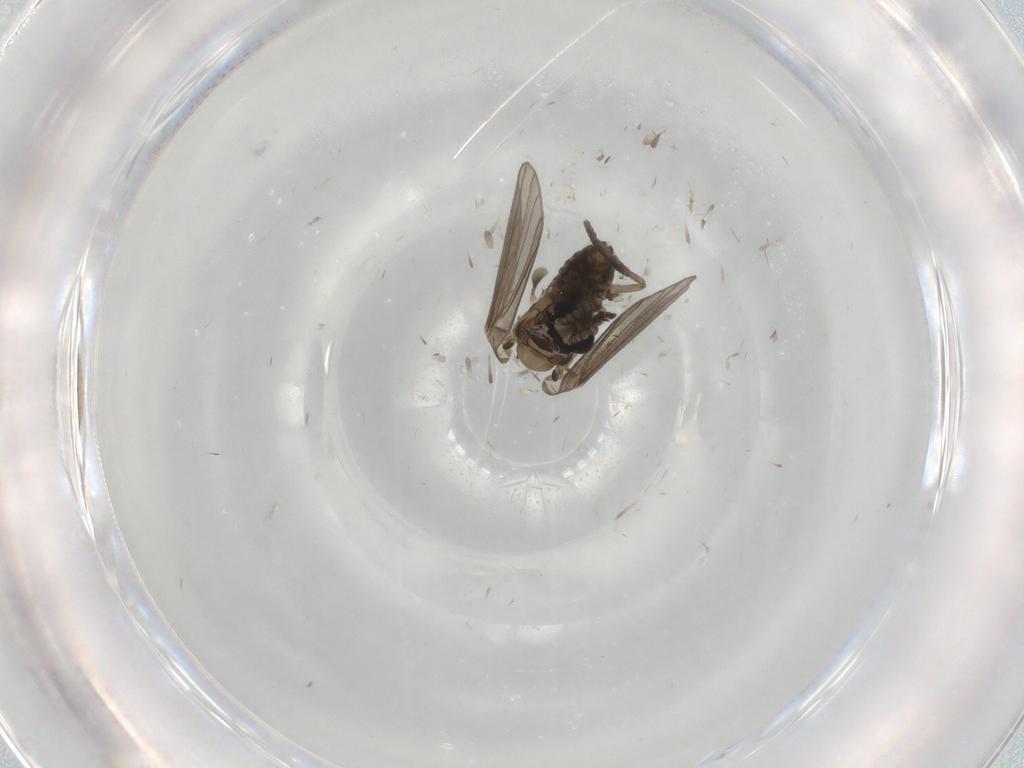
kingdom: Animalia
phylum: Arthropoda
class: Insecta
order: Diptera
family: Psychodidae
